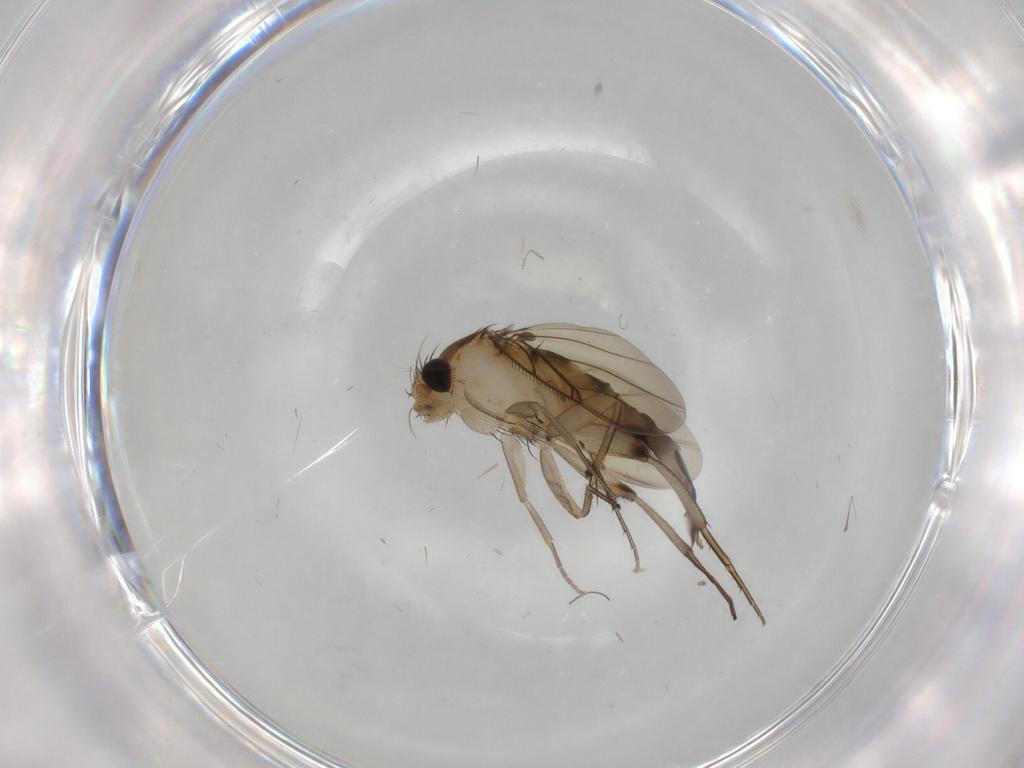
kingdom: Animalia
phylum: Arthropoda
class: Insecta
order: Diptera
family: Phoridae
